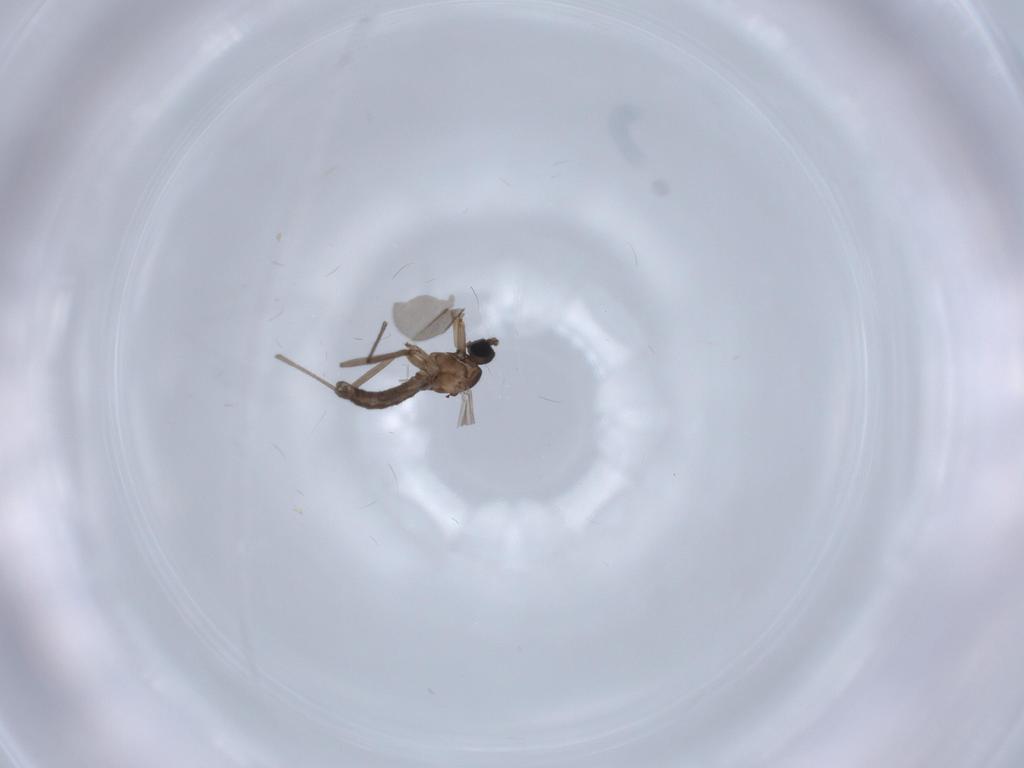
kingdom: Animalia
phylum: Arthropoda
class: Insecta
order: Diptera
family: Sciaridae
